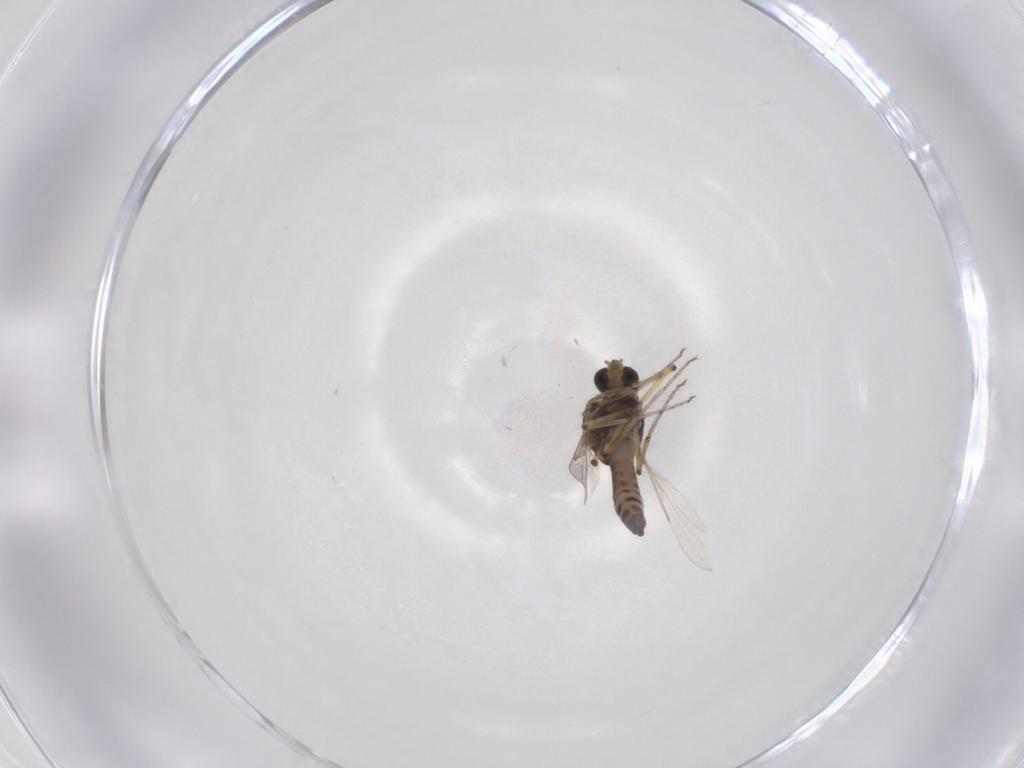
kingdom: Animalia
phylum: Arthropoda
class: Insecta
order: Diptera
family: Ceratopogonidae
